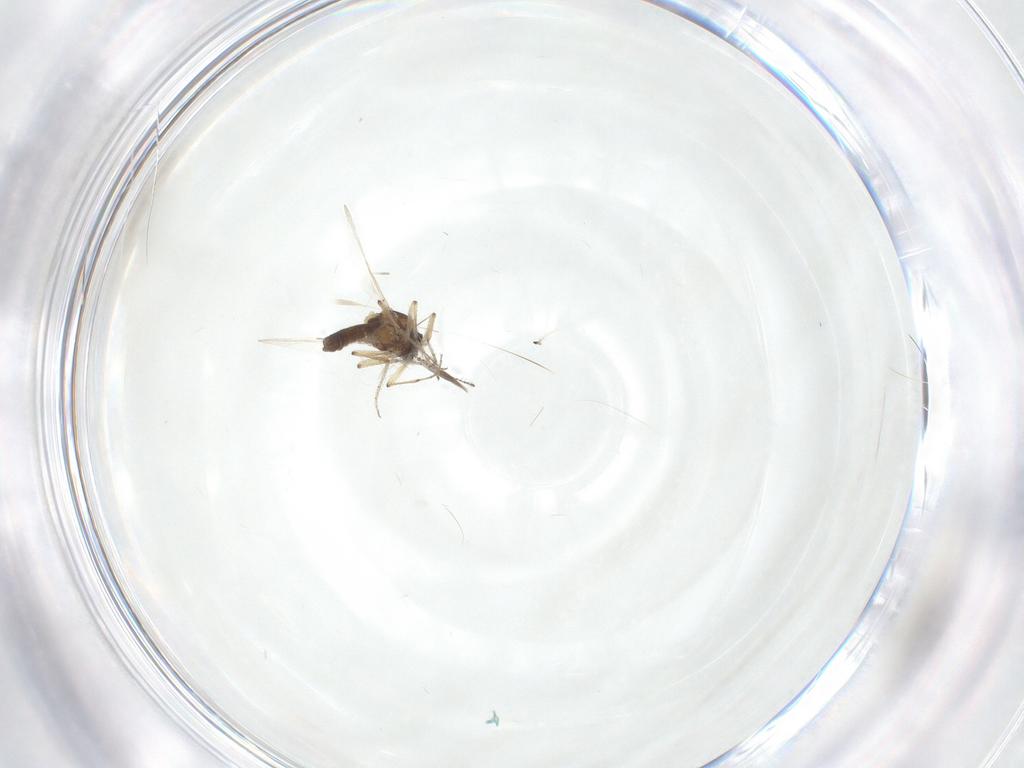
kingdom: Animalia
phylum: Arthropoda
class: Insecta
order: Diptera
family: Ceratopogonidae
